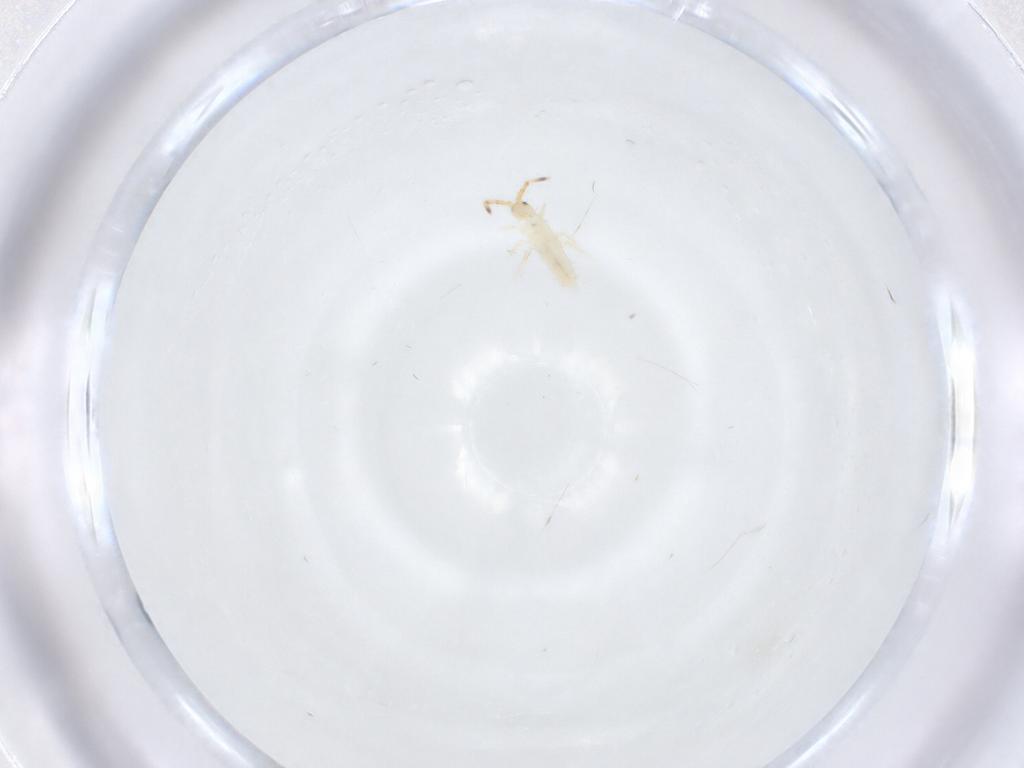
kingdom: Animalia
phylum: Arthropoda
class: Collembola
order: Entomobryomorpha
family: Entomobryidae
